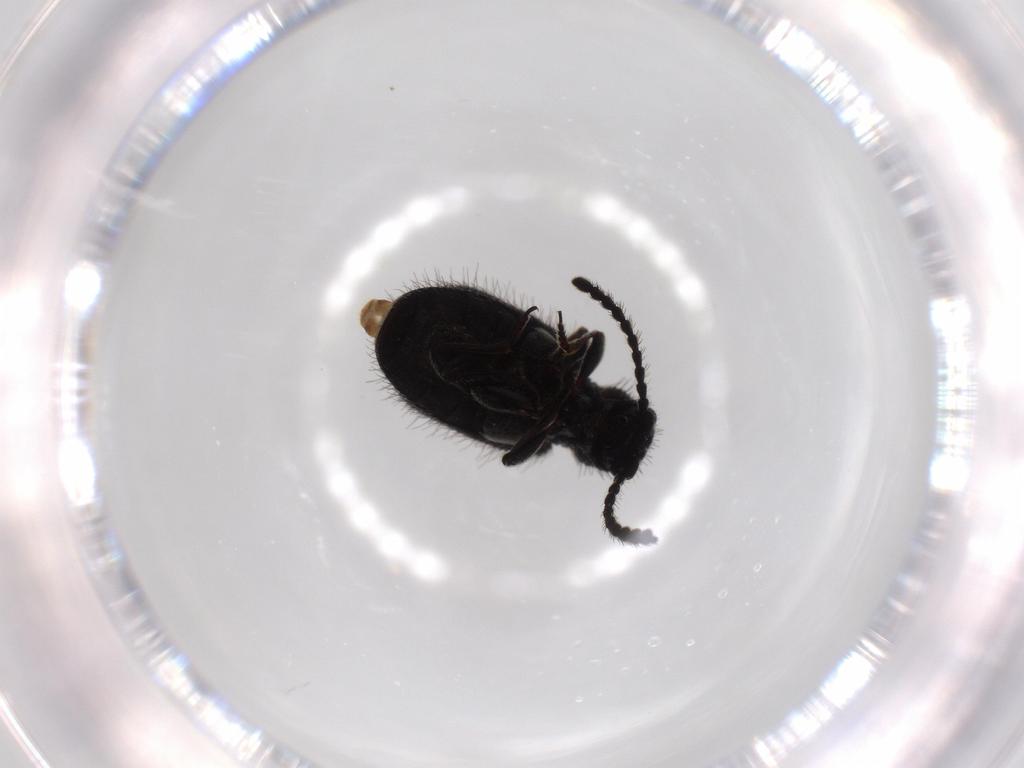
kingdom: Animalia
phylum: Arthropoda
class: Insecta
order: Coleoptera
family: Ptinidae
